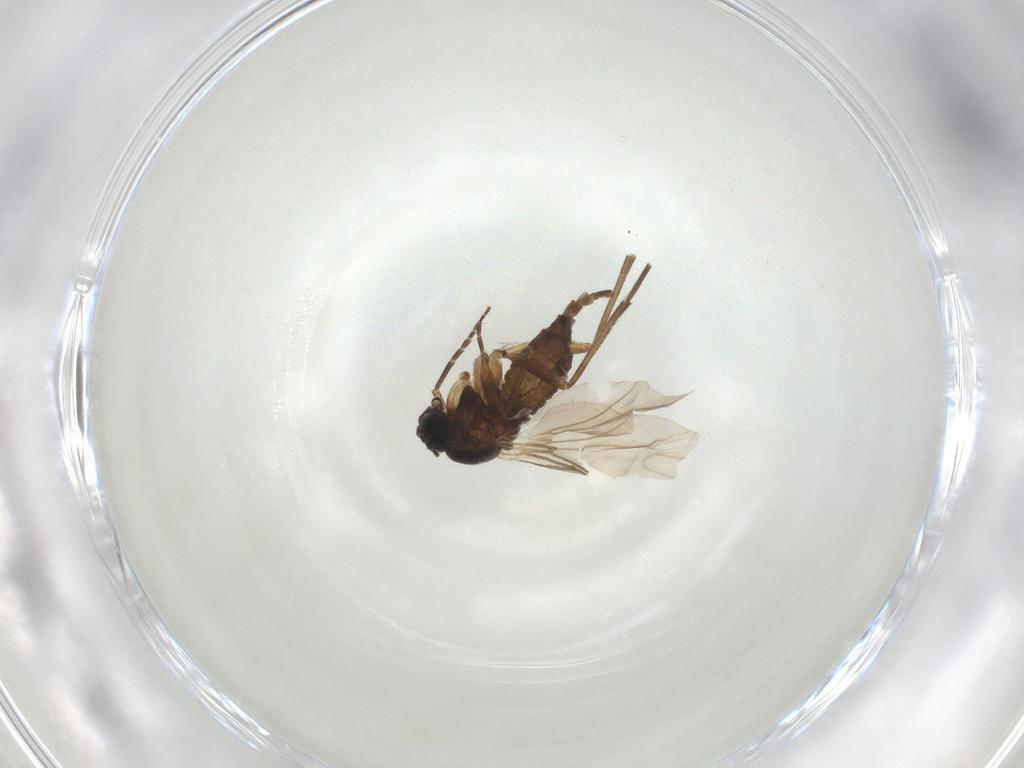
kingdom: Animalia
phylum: Arthropoda
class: Insecta
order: Diptera
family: Sciaridae
